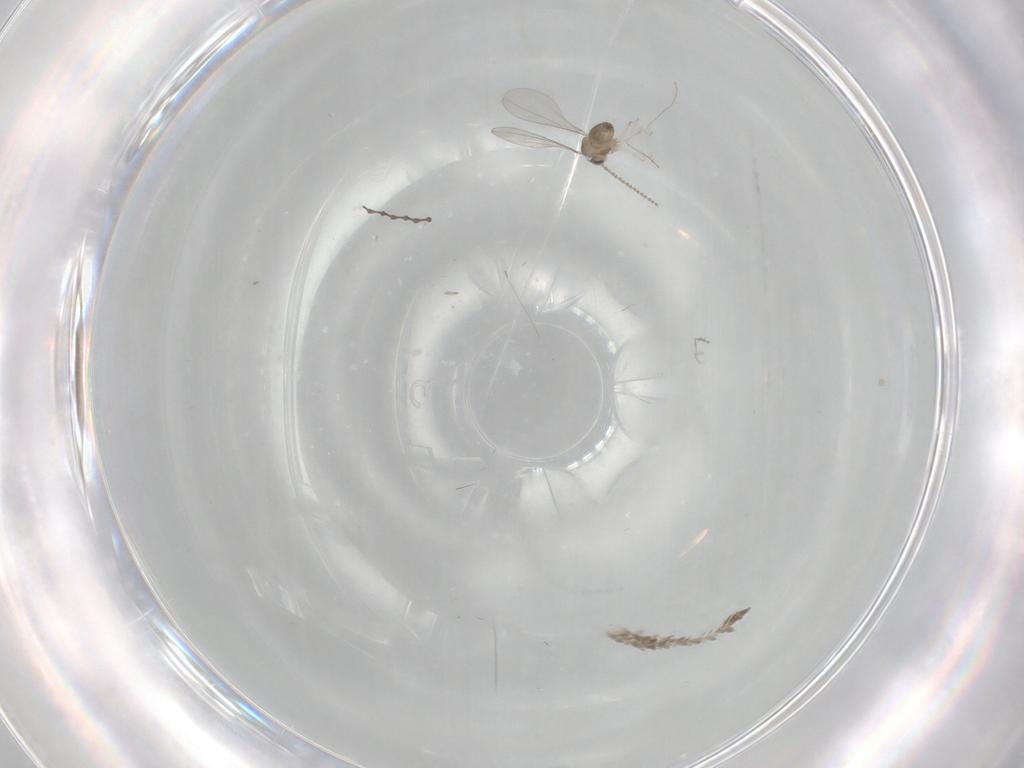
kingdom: Animalia
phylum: Arthropoda
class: Insecta
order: Diptera
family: Cecidomyiidae
